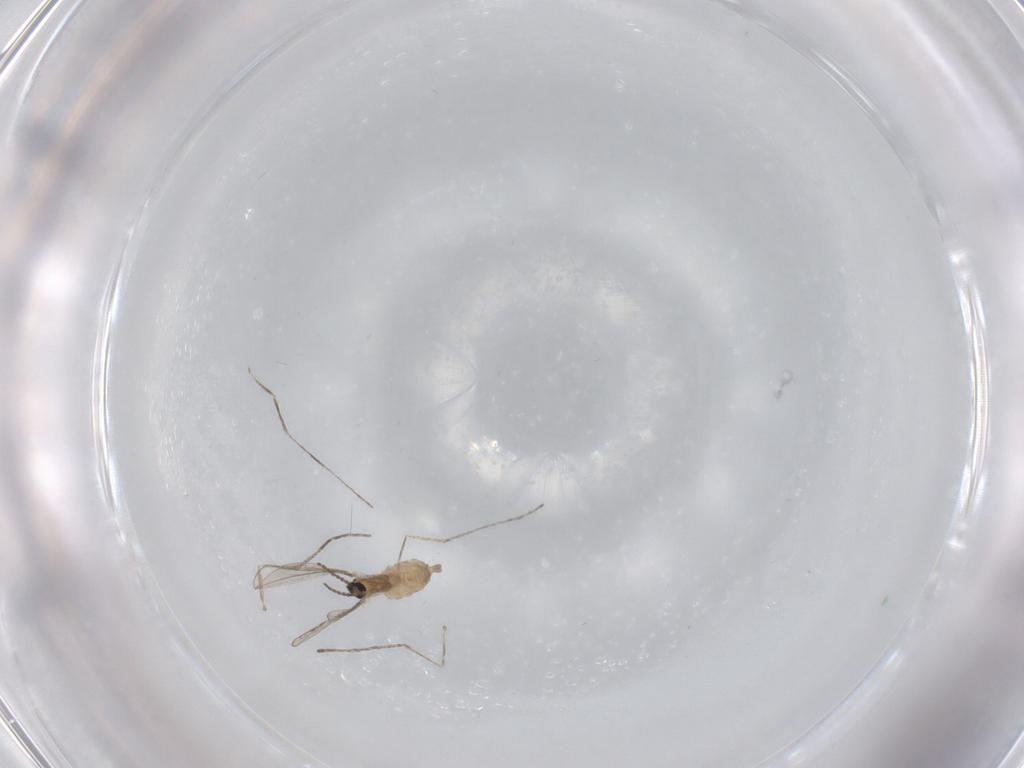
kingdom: Animalia
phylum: Arthropoda
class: Insecta
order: Diptera
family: Cecidomyiidae
